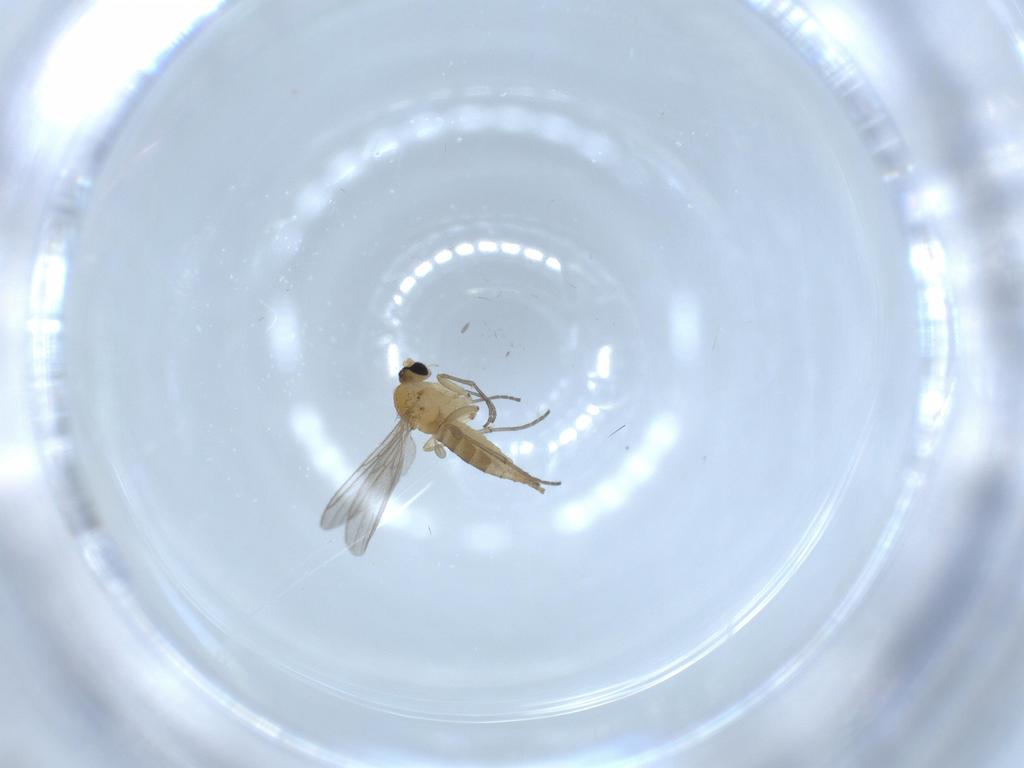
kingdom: Animalia
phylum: Arthropoda
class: Insecta
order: Diptera
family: Sciaridae
